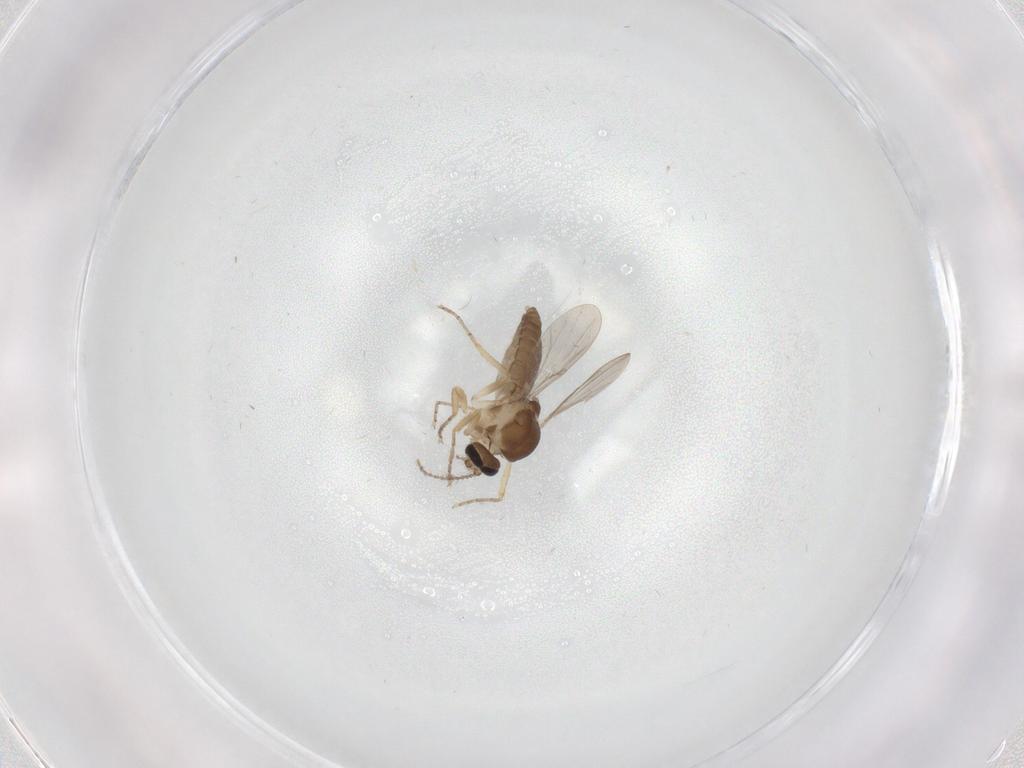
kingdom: Animalia
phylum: Arthropoda
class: Insecta
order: Diptera
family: Ceratopogonidae
